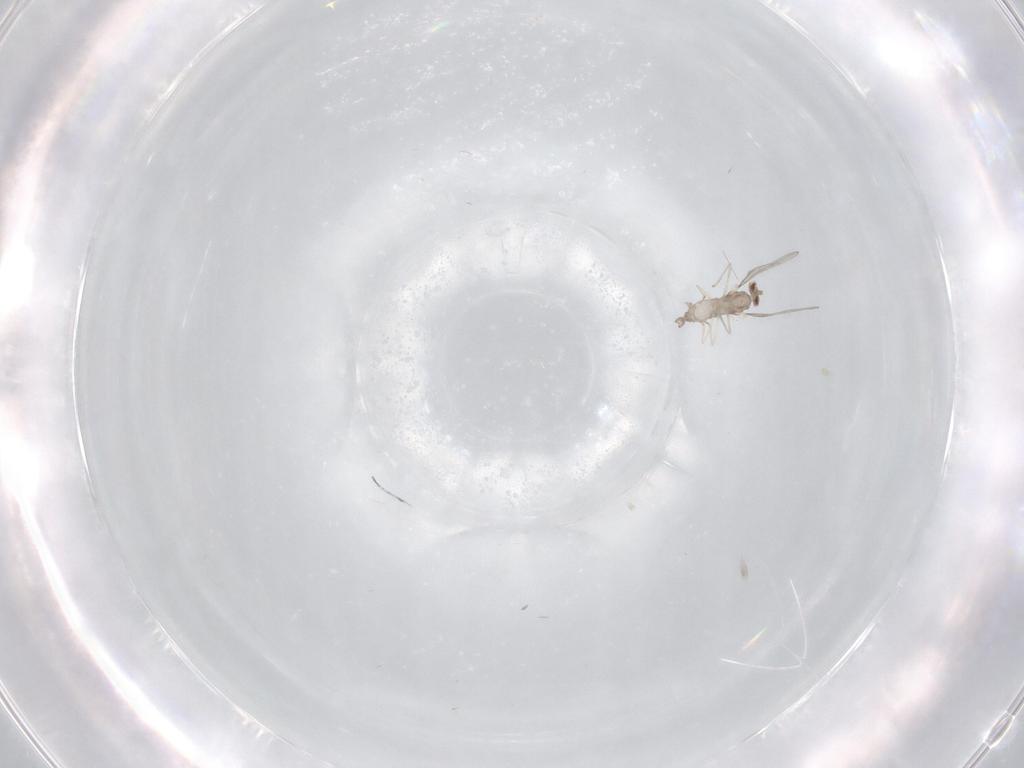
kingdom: Animalia
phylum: Arthropoda
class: Insecta
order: Diptera
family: Cecidomyiidae
